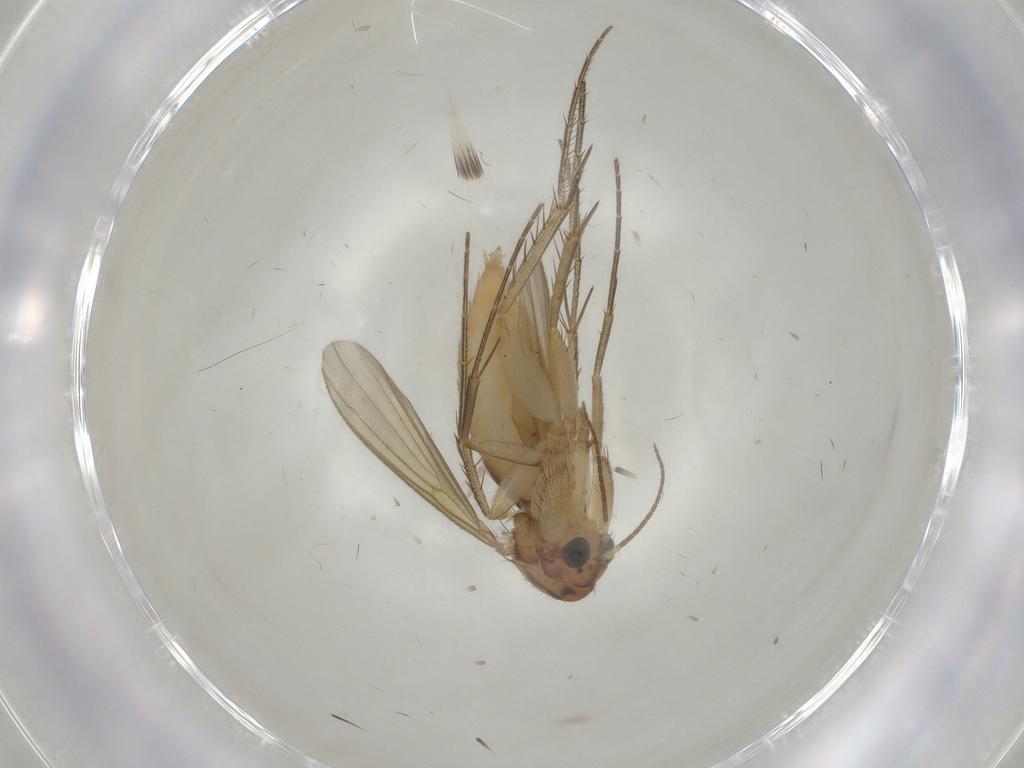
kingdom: Animalia
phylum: Arthropoda
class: Insecta
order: Diptera
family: Mycetophilidae
